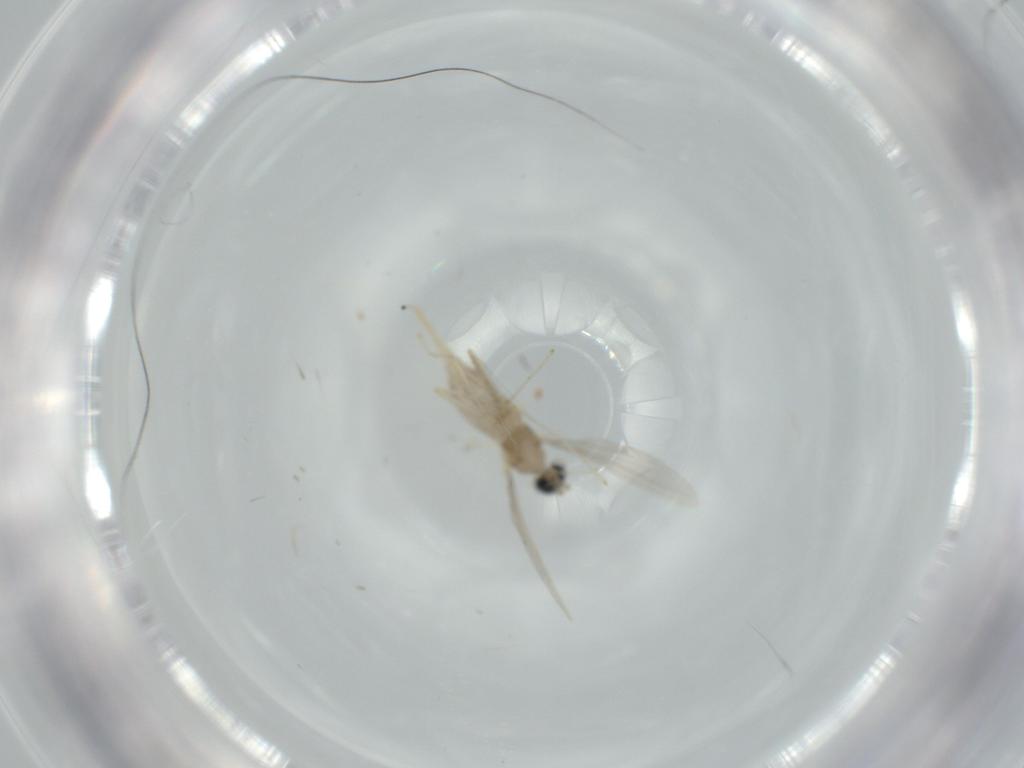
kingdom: Animalia
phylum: Arthropoda
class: Insecta
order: Diptera
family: Cecidomyiidae
